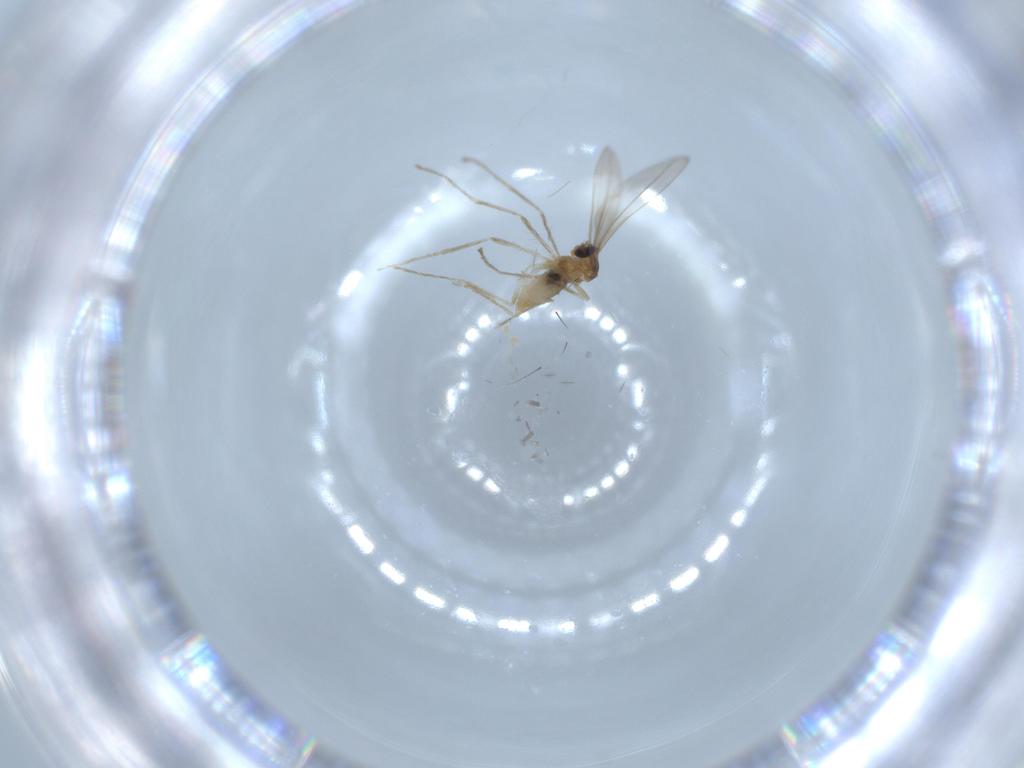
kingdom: Animalia
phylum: Arthropoda
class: Insecta
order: Diptera
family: Cecidomyiidae
